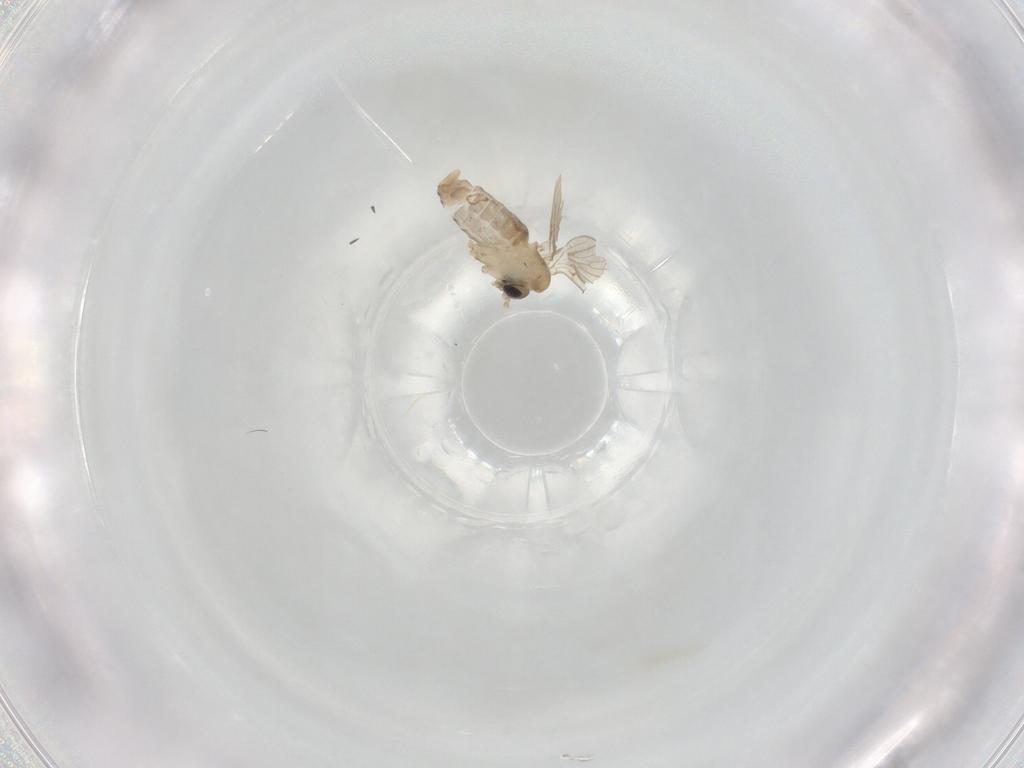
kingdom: Animalia
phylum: Arthropoda
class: Insecta
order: Diptera
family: Psychodidae
